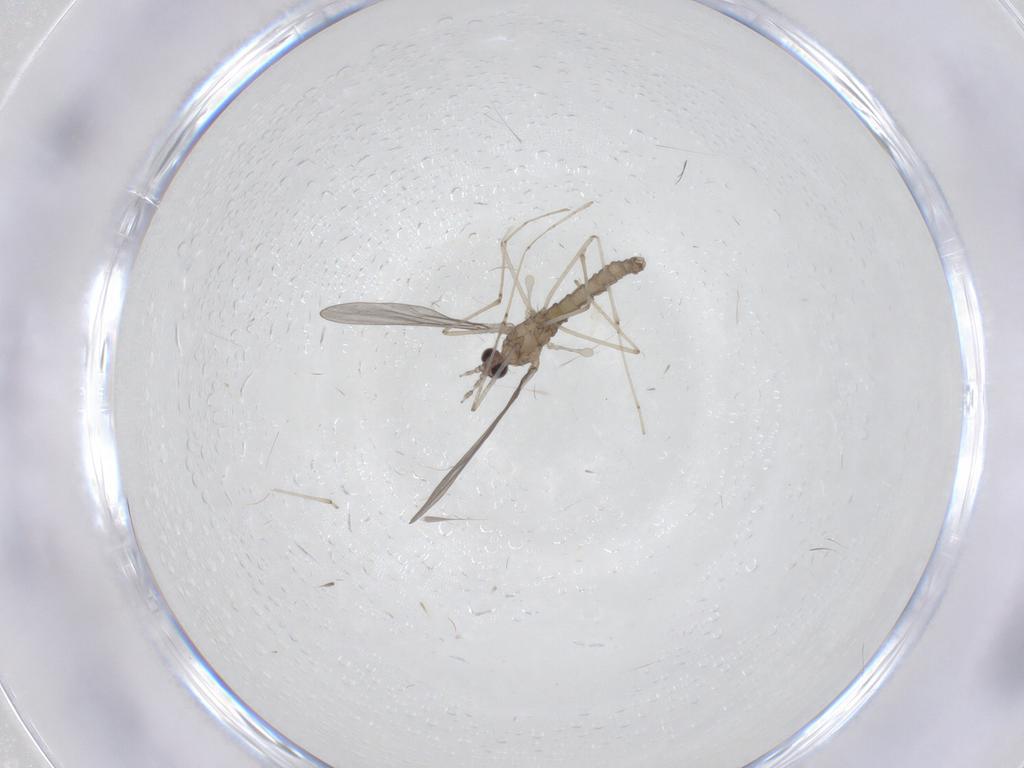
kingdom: Animalia
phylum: Arthropoda
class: Insecta
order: Diptera
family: Cecidomyiidae
